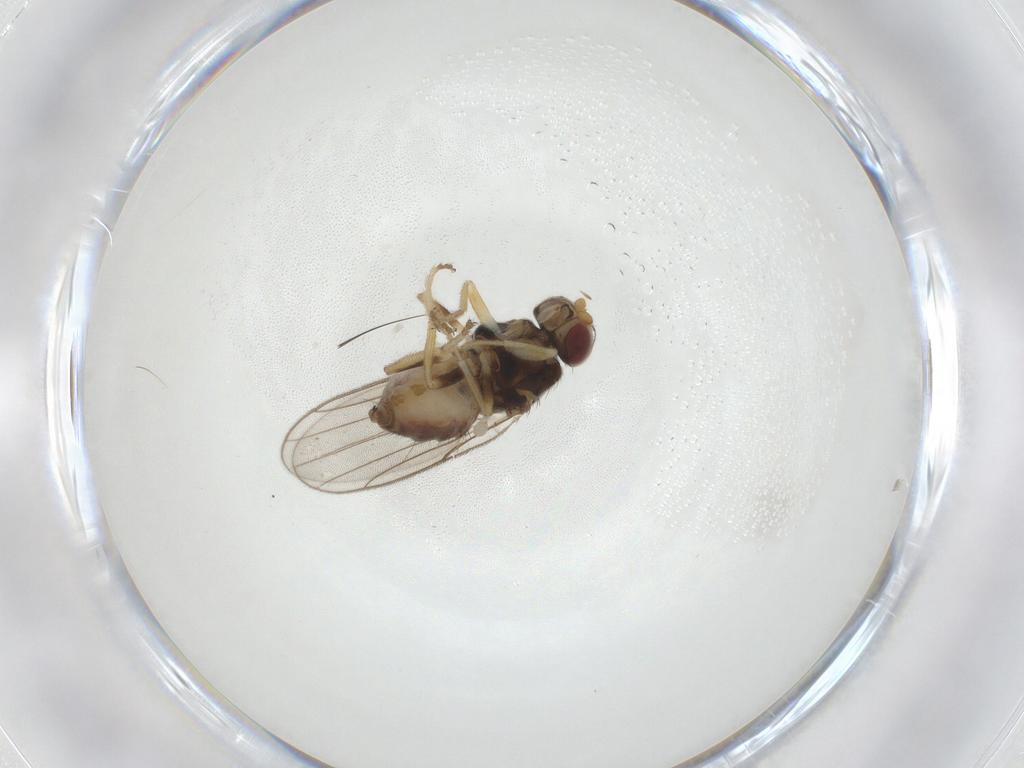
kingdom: Animalia
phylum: Arthropoda
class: Insecta
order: Diptera
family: Chloropidae
